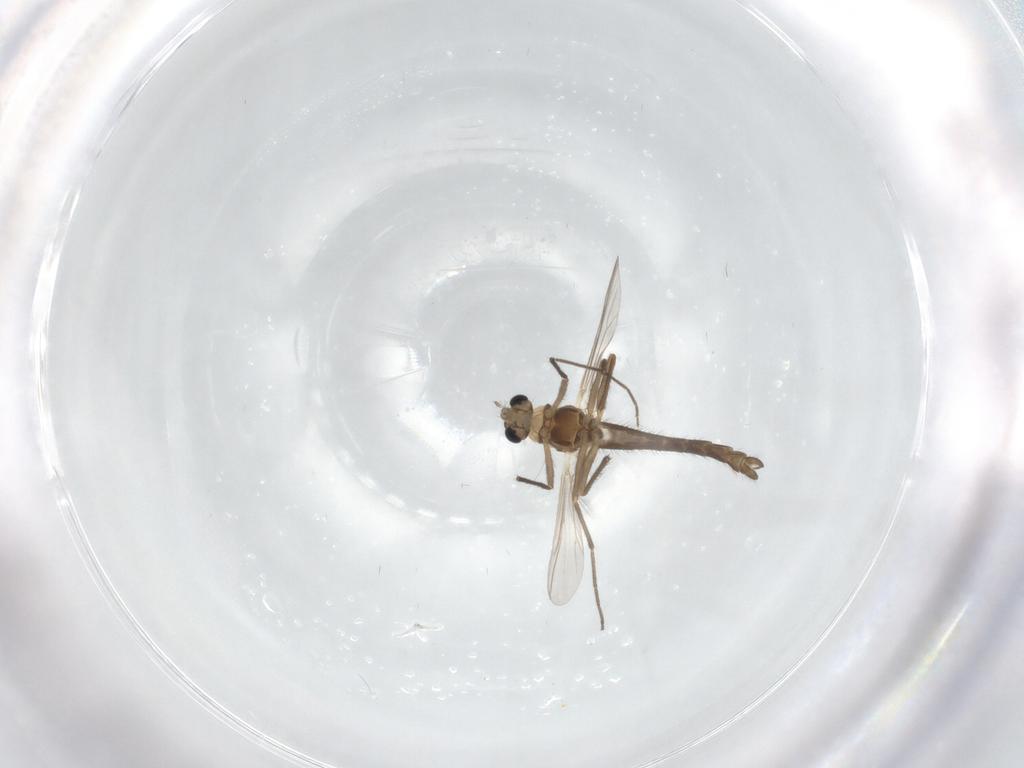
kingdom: Animalia
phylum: Arthropoda
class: Insecta
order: Diptera
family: Chironomidae
